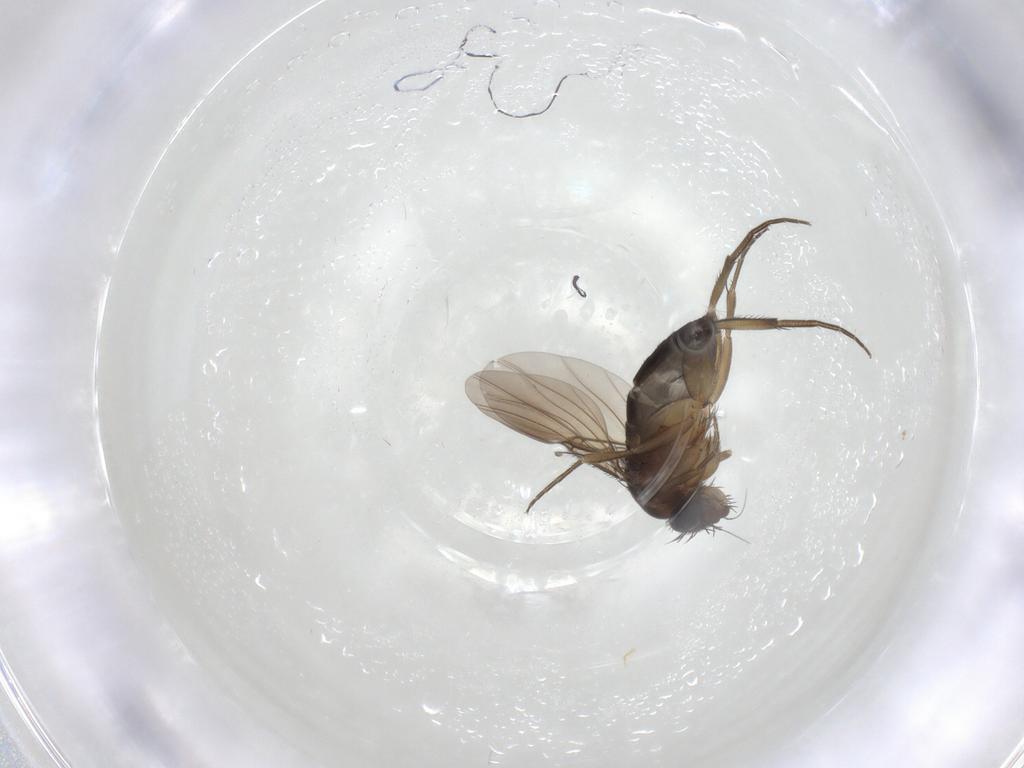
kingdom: Animalia
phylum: Arthropoda
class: Insecta
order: Diptera
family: Phoridae
